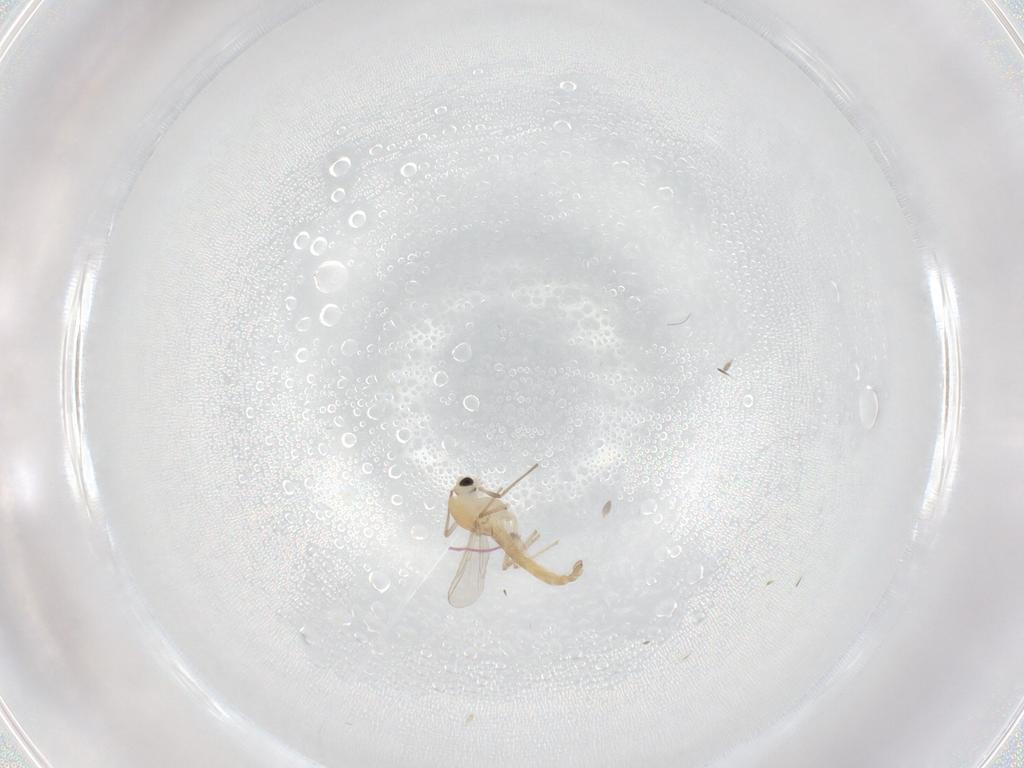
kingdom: Animalia
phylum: Arthropoda
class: Insecta
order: Diptera
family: Chironomidae
